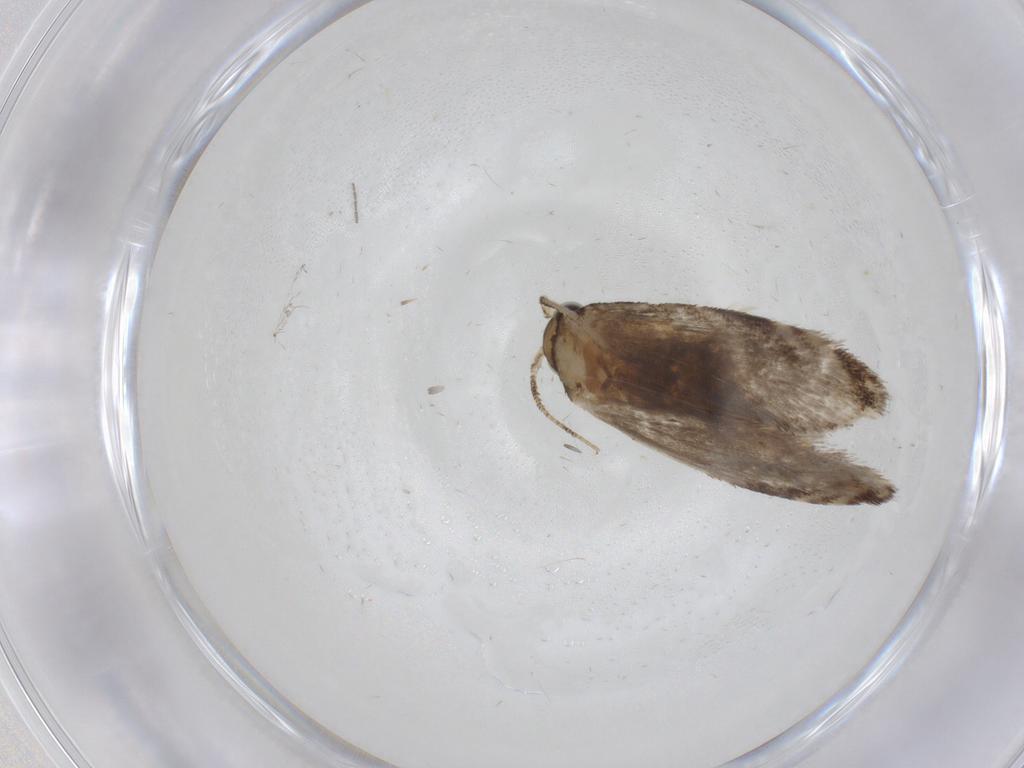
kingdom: Animalia
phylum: Arthropoda
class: Insecta
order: Lepidoptera
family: Tineidae
